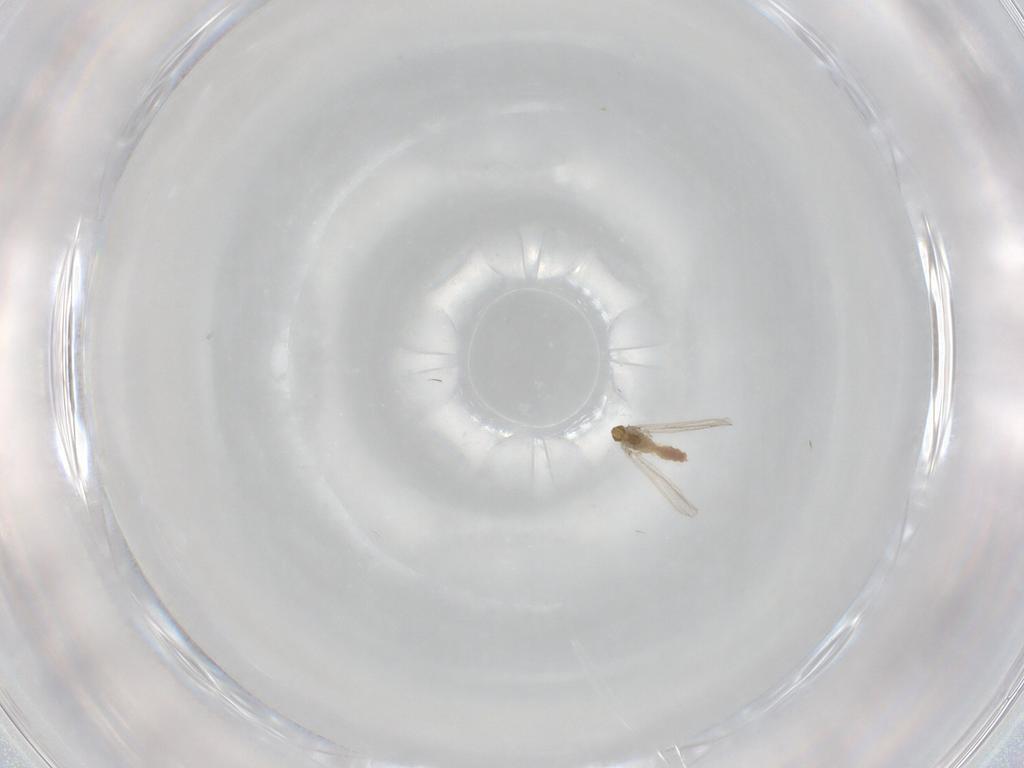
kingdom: Animalia
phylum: Arthropoda
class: Insecta
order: Diptera
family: Chironomidae
